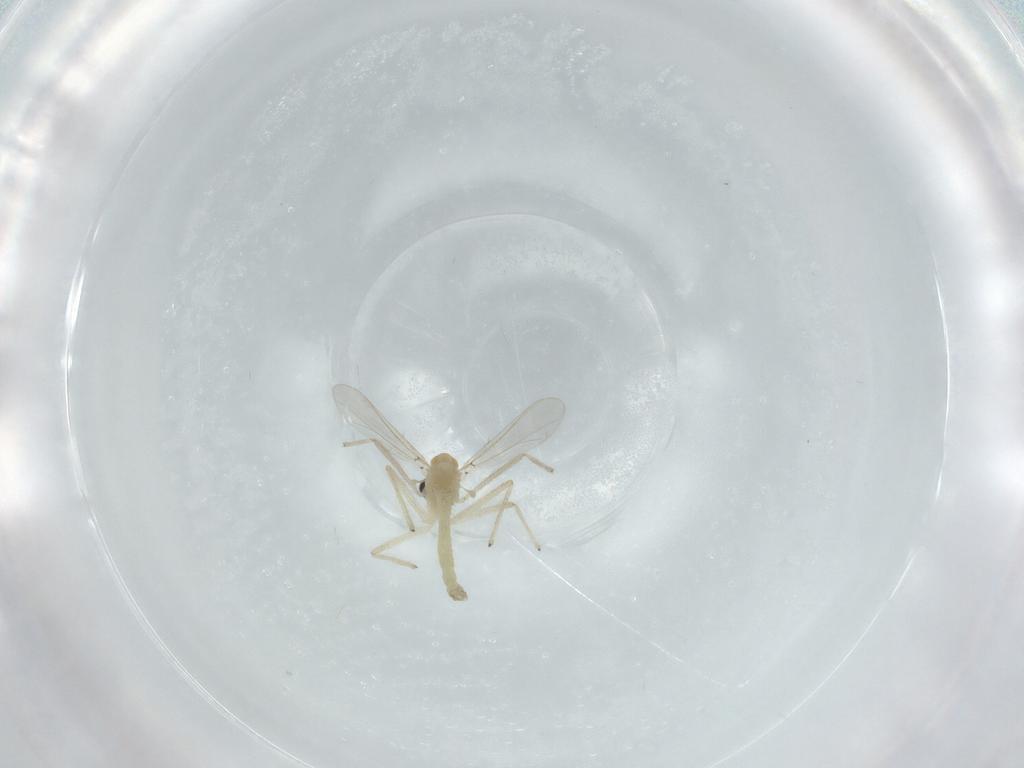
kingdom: Animalia
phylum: Arthropoda
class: Insecta
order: Diptera
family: Chironomidae
